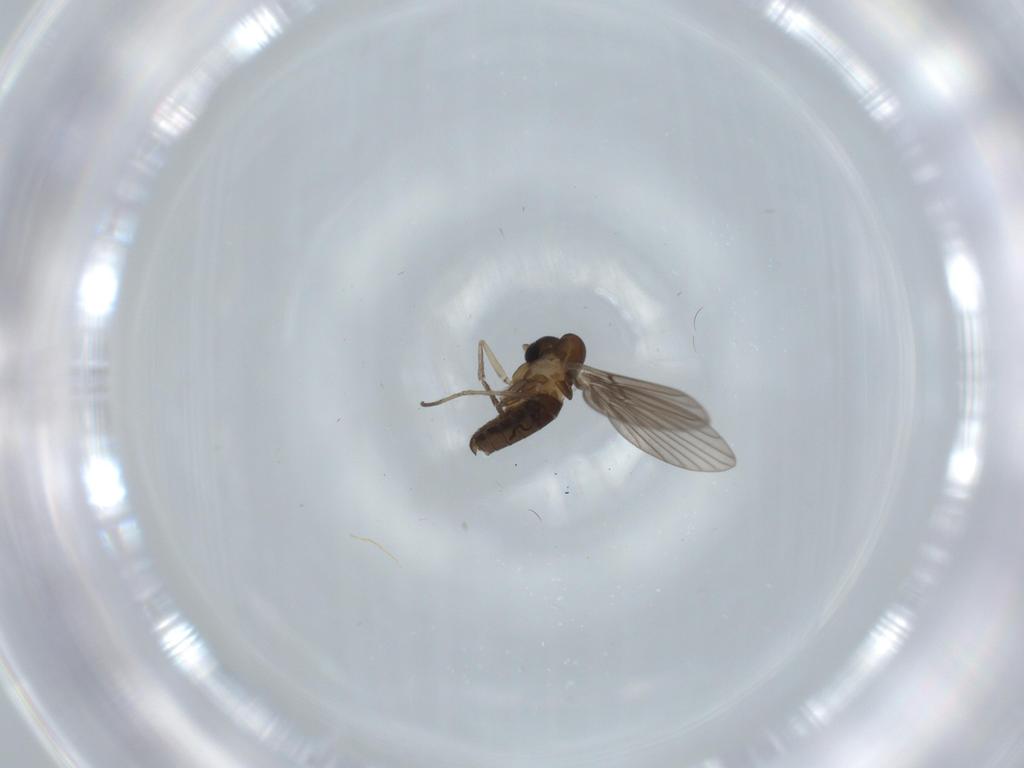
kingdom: Animalia
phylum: Arthropoda
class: Insecta
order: Diptera
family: Psychodidae
